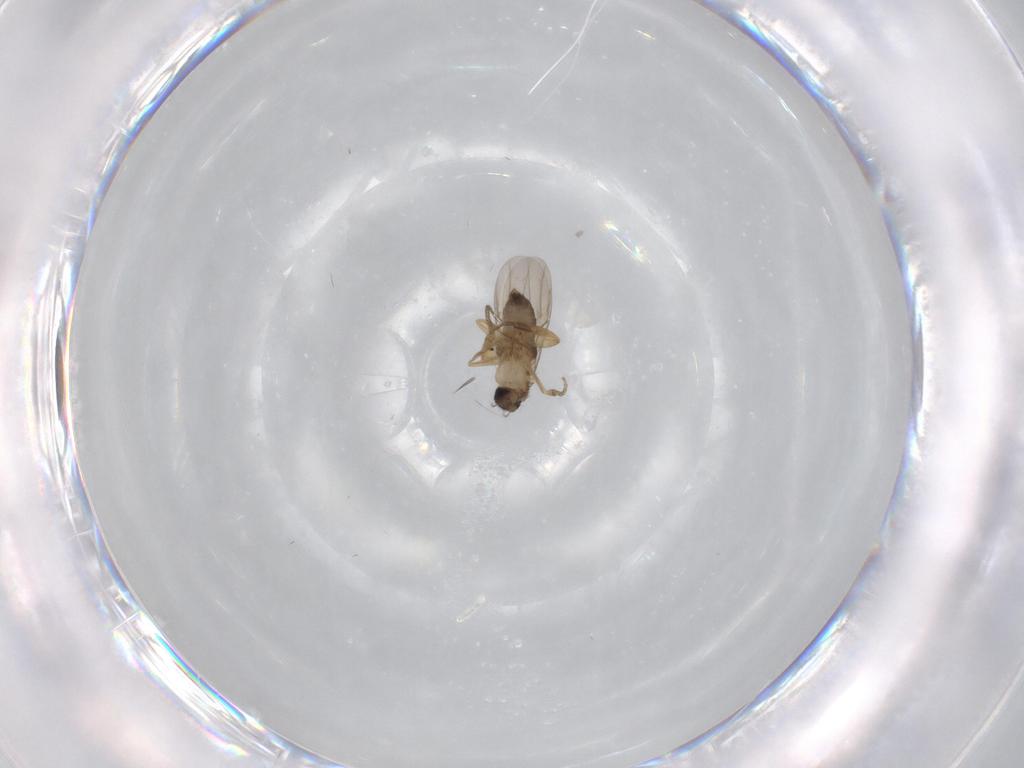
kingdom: Animalia
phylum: Arthropoda
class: Insecta
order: Diptera
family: Phoridae
